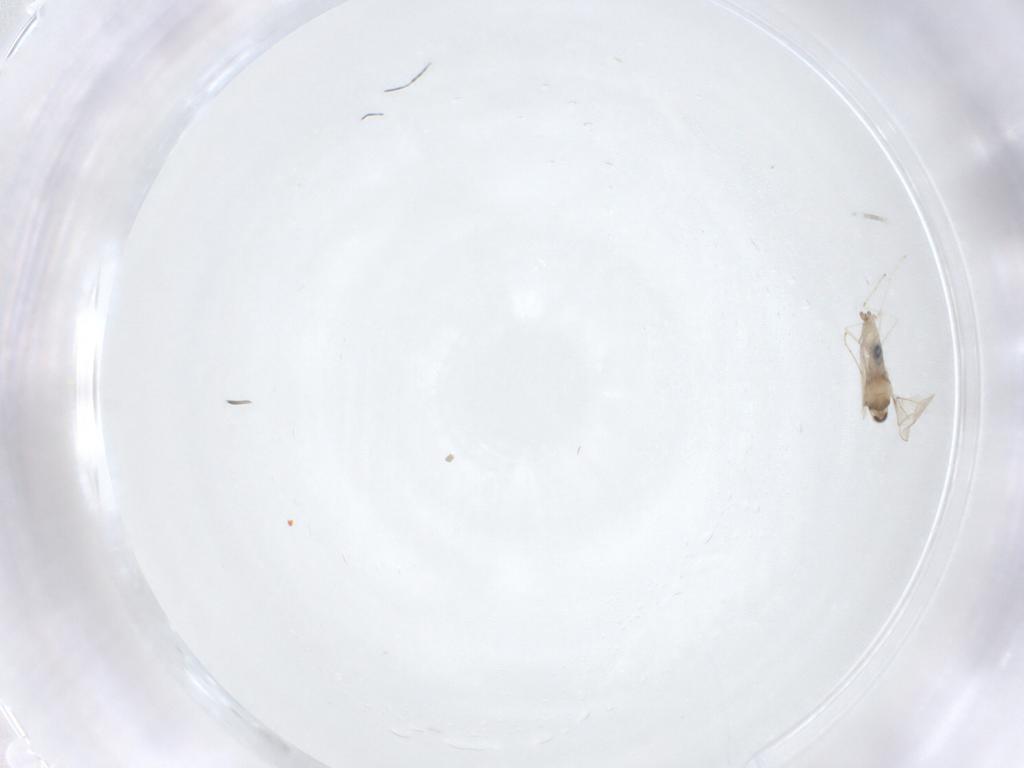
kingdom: Animalia
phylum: Arthropoda
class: Insecta
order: Diptera
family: Cecidomyiidae
